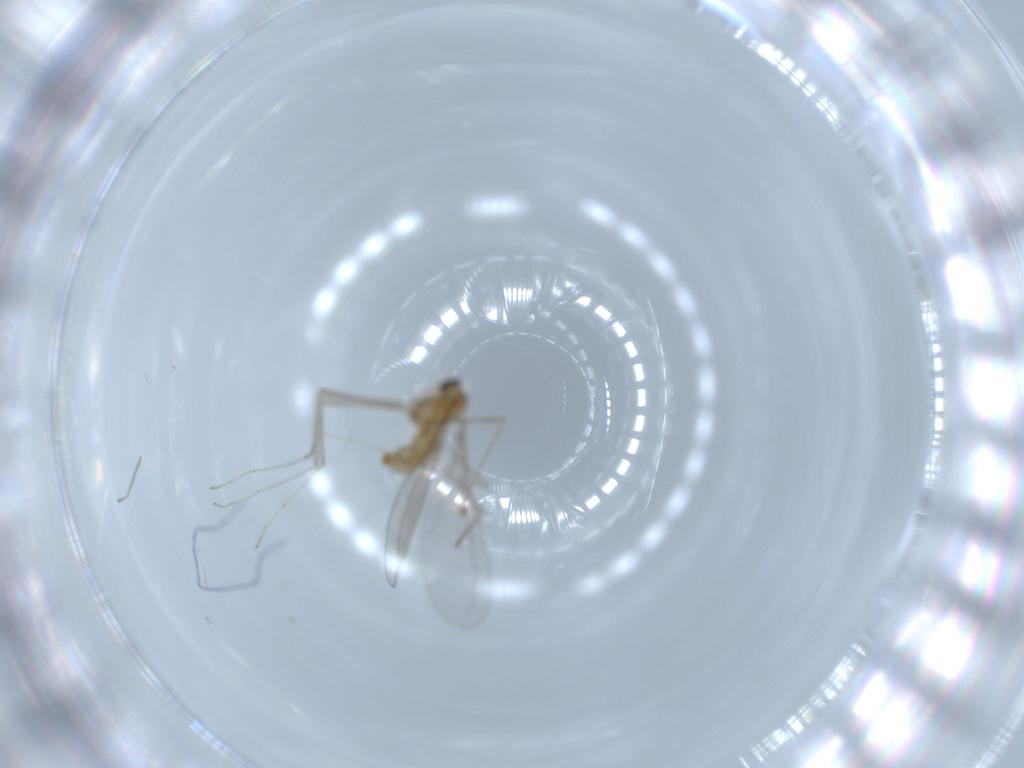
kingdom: Animalia
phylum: Arthropoda
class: Insecta
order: Diptera
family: Cecidomyiidae
